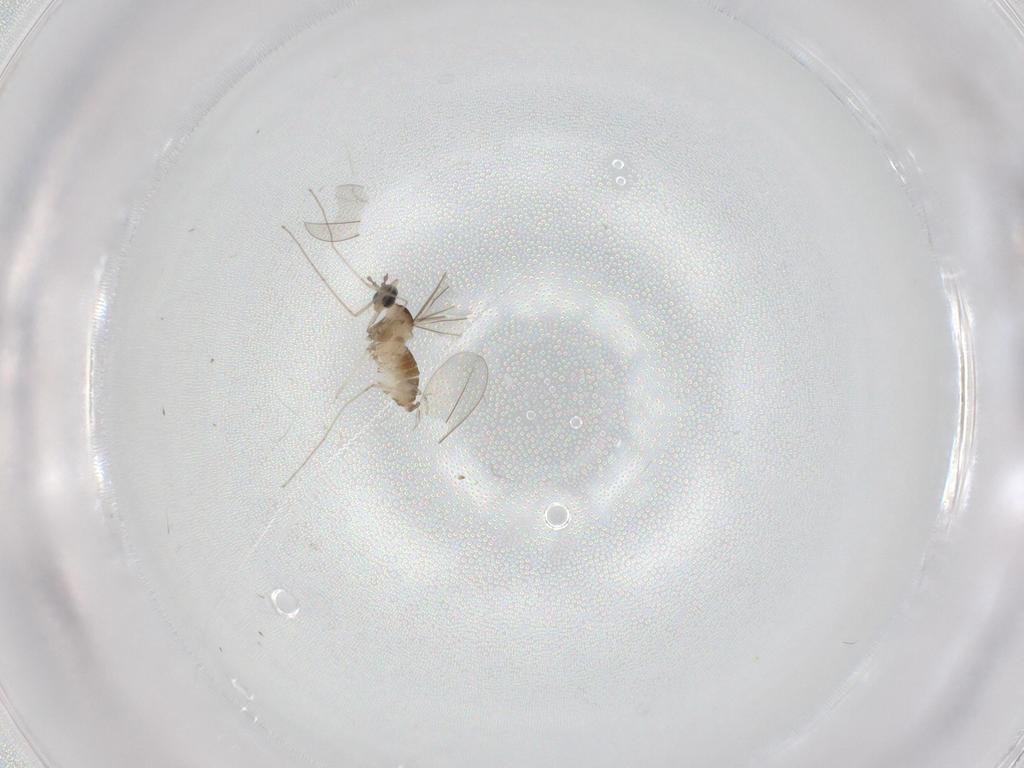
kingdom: Animalia
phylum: Arthropoda
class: Insecta
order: Diptera
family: Cecidomyiidae
